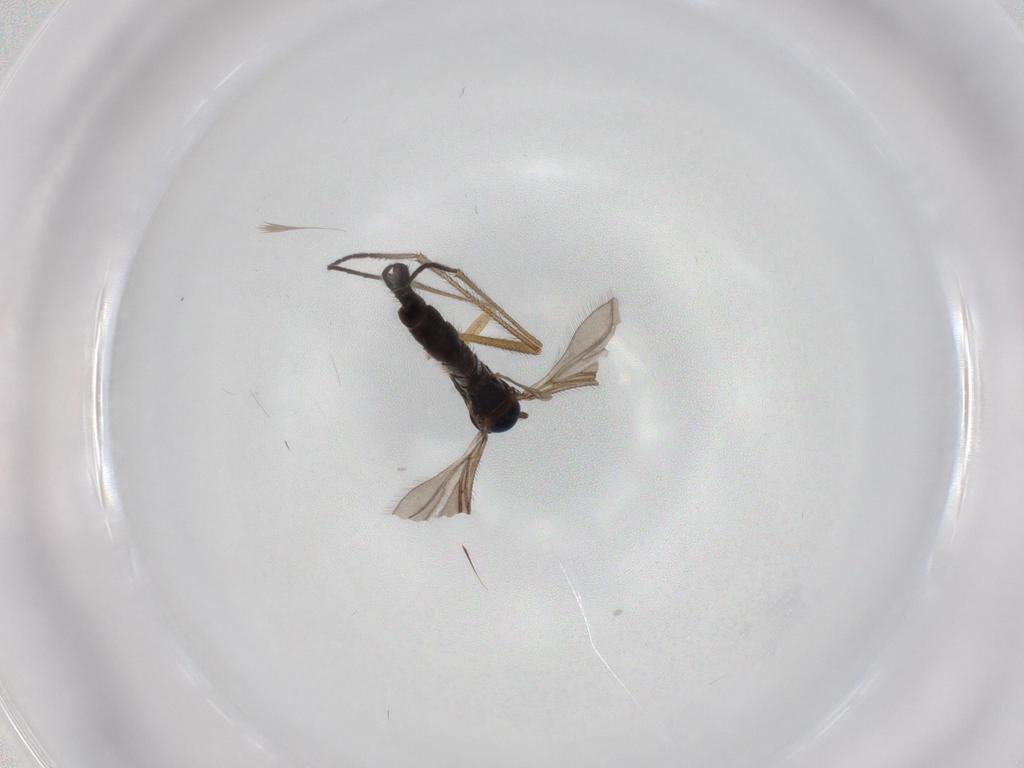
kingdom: Animalia
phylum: Arthropoda
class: Insecta
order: Diptera
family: Sciaridae
